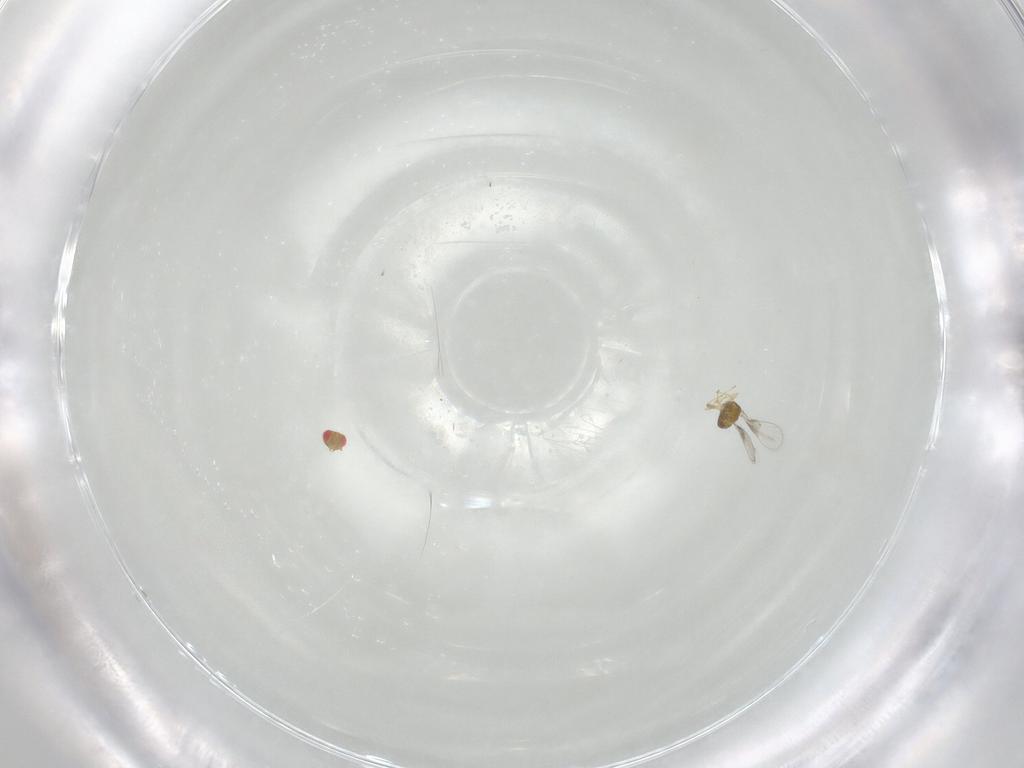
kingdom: Animalia
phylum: Arthropoda
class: Insecta
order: Hymenoptera
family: Trichogrammatidae
